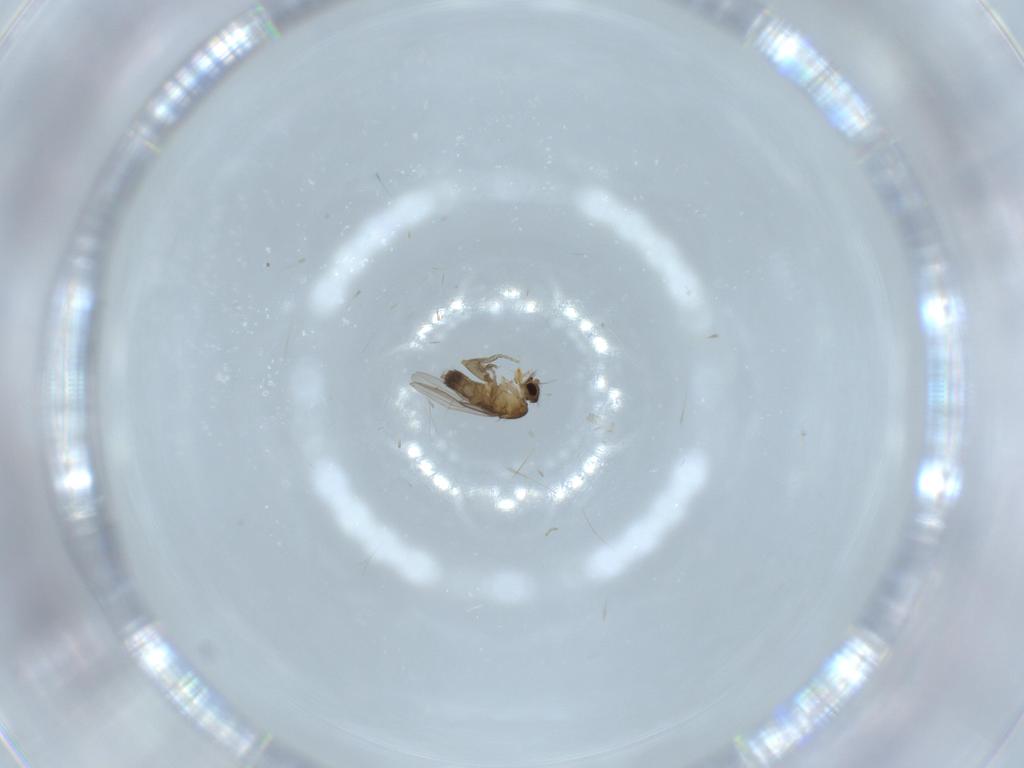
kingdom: Animalia
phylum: Arthropoda
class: Insecta
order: Diptera
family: Phoridae
